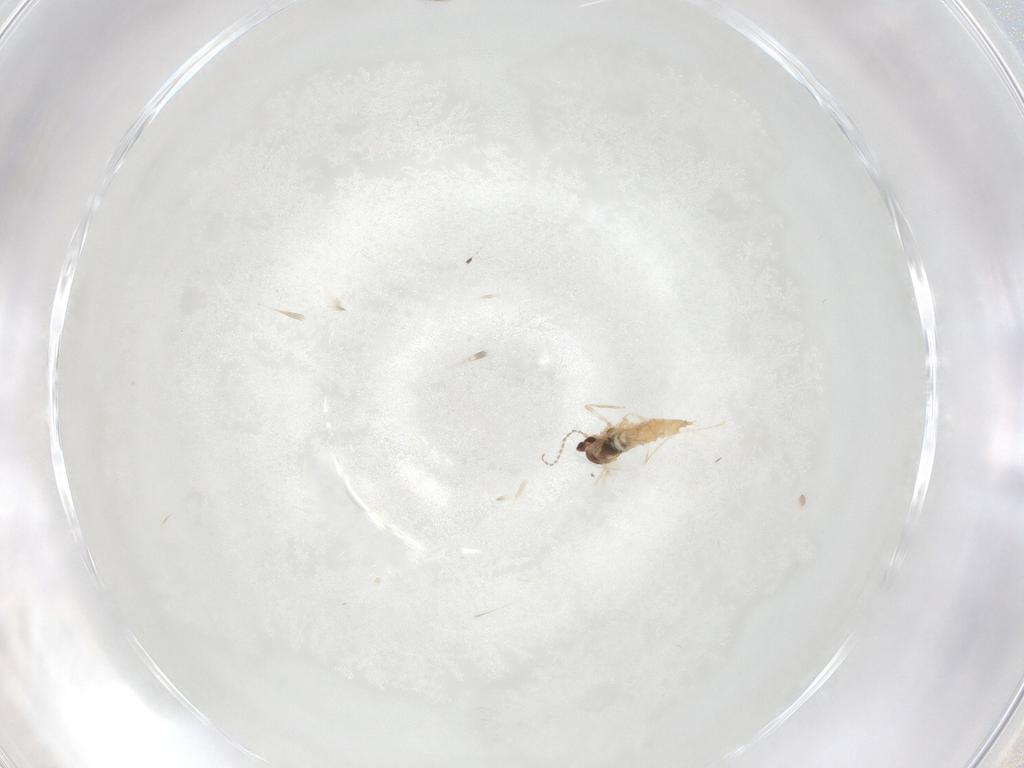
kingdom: Animalia
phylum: Arthropoda
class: Insecta
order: Diptera
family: Cecidomyiidae
